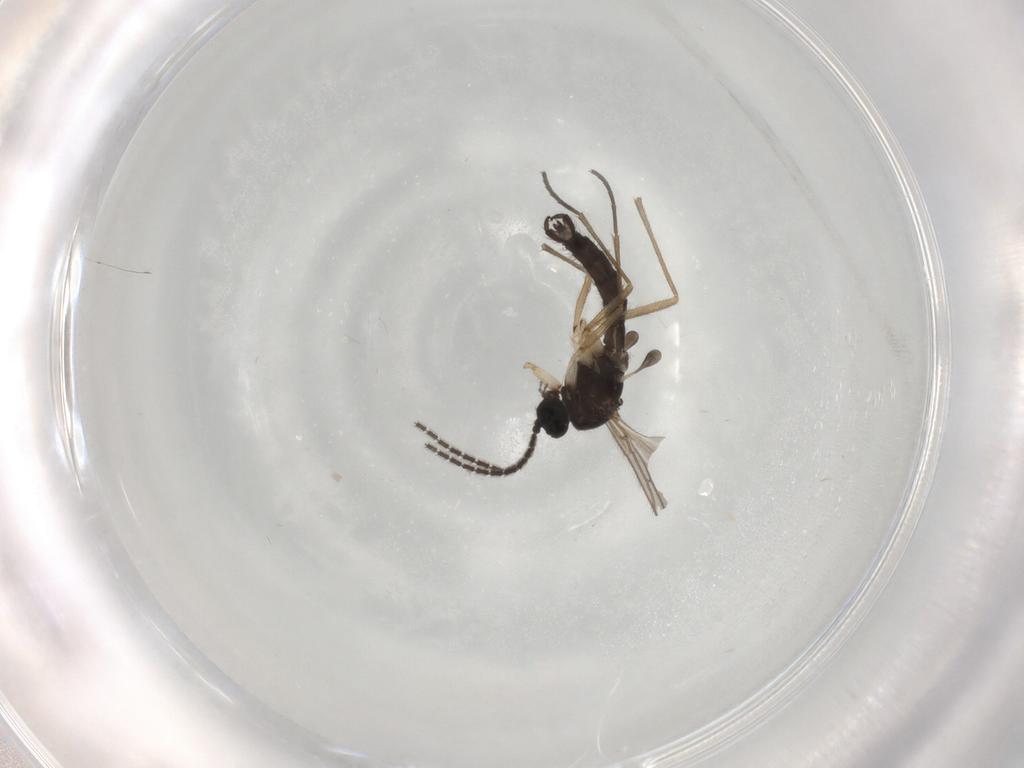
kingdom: Animalia
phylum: Arthropoda
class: Insecta
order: Diptera
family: Sciaridae
